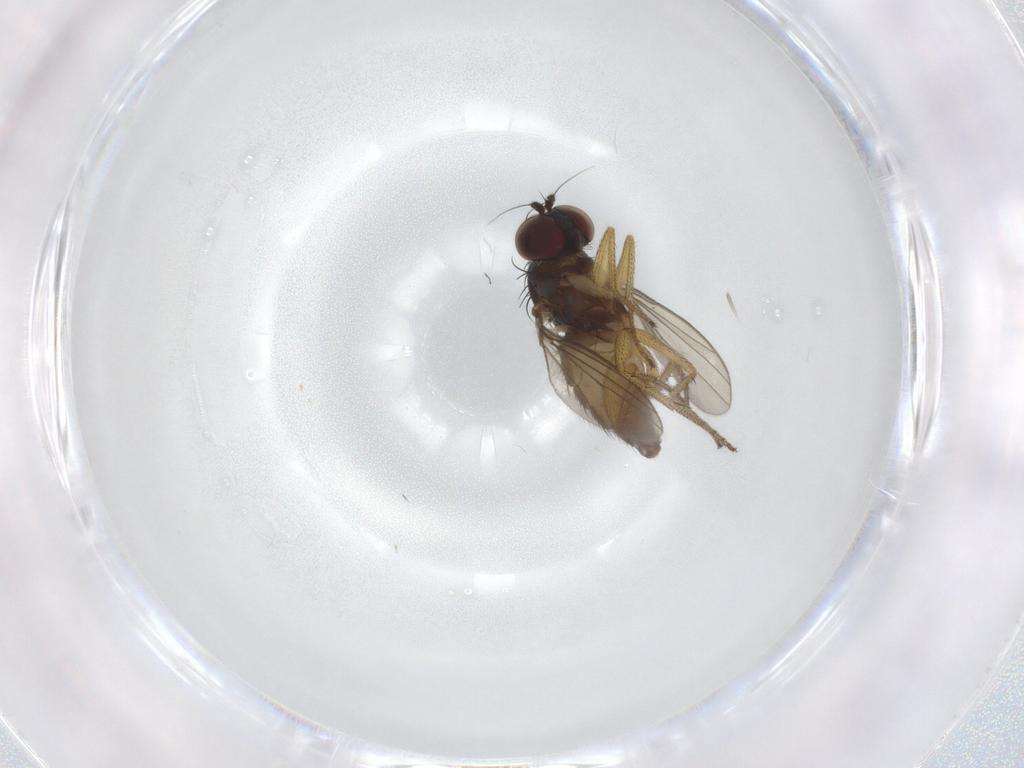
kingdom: Animalia
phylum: Arthropoda
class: Insecta
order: Diptera
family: Dolichopodidae
